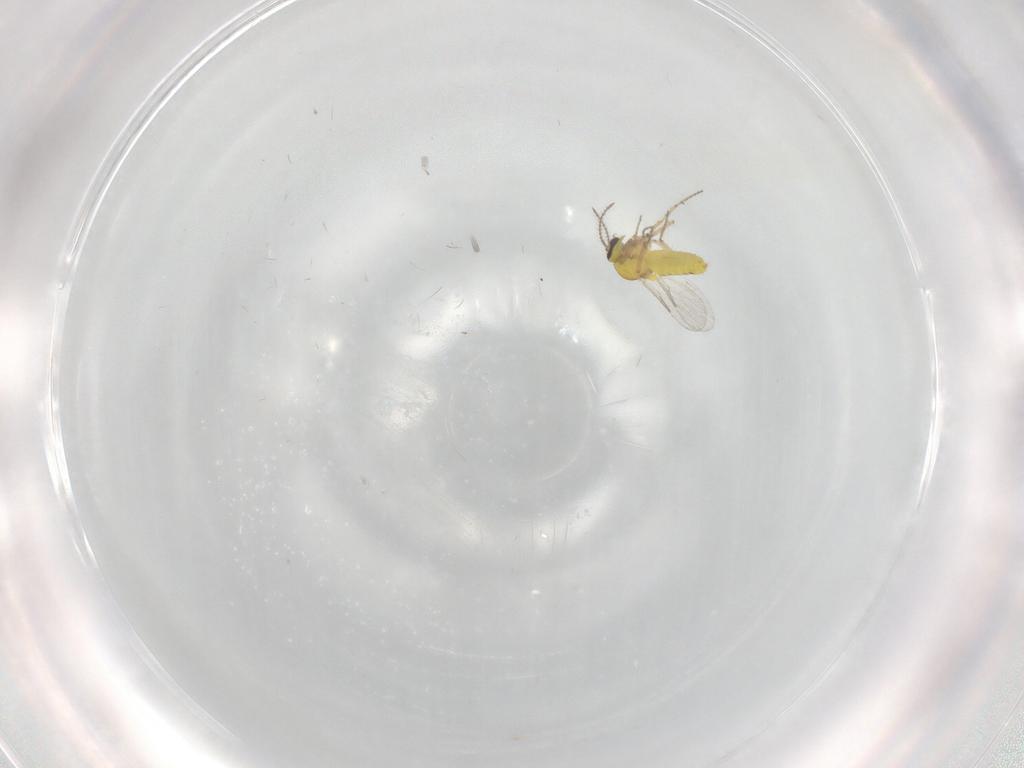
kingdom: Animalia
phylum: Arthropoda
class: Insecta
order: Diptera
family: Ceratopogonidae
